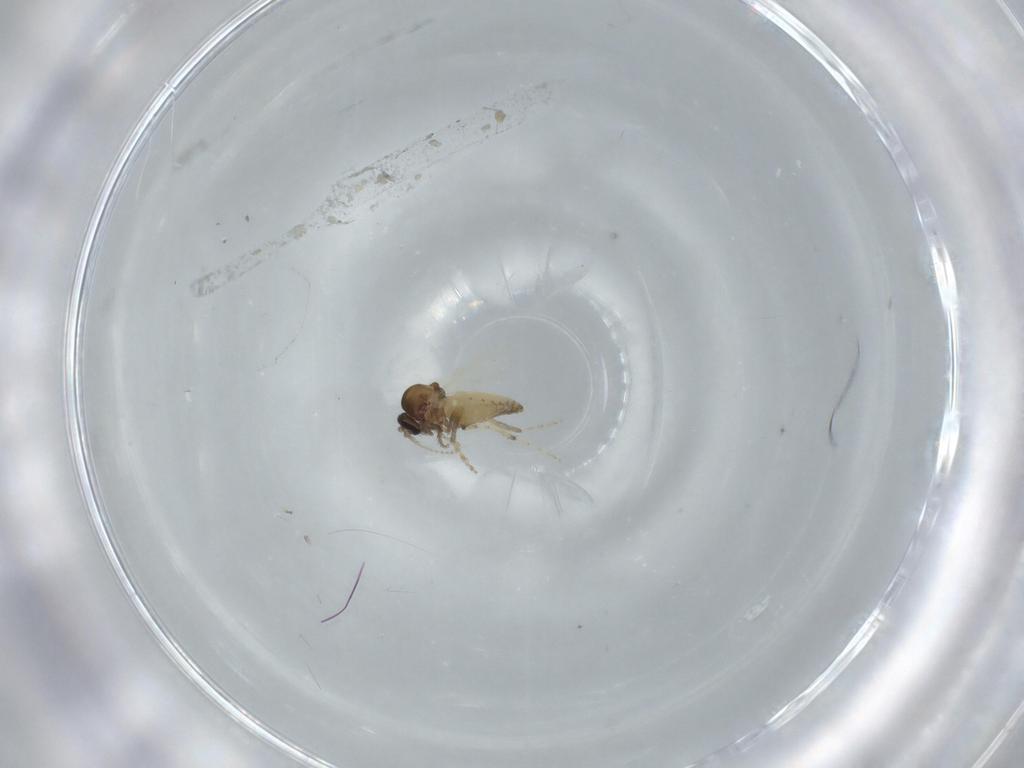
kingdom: Animalia
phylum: Arthropoda
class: Insecta
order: Diptera
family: Ceratopogonidae
